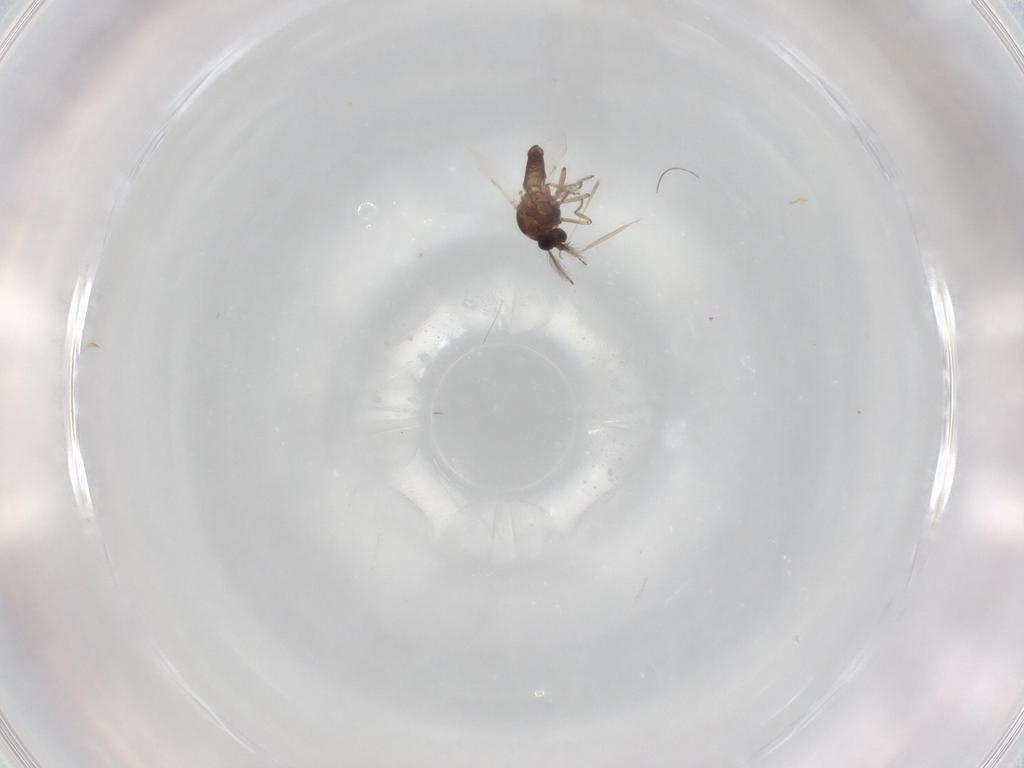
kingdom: Animalia
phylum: Arthropoda
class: Insecta
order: Diptera
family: Ceratopogonidae
